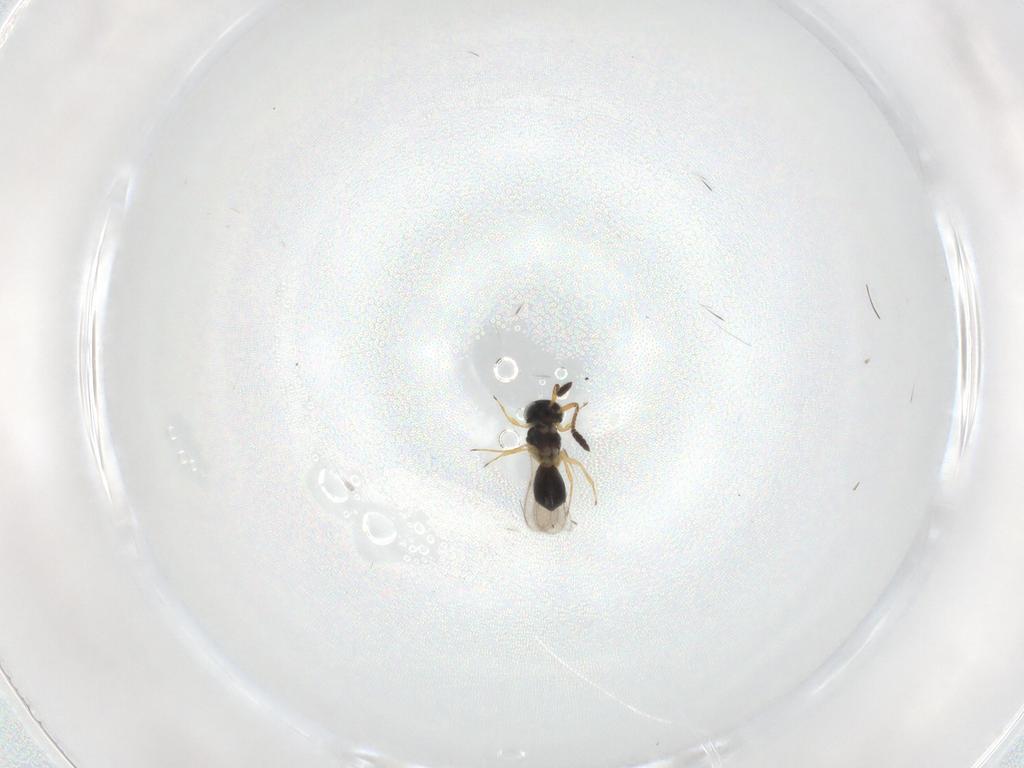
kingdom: Animalia
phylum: Arthropoda
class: Insecta
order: Hymenoptera
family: Scelionidae
